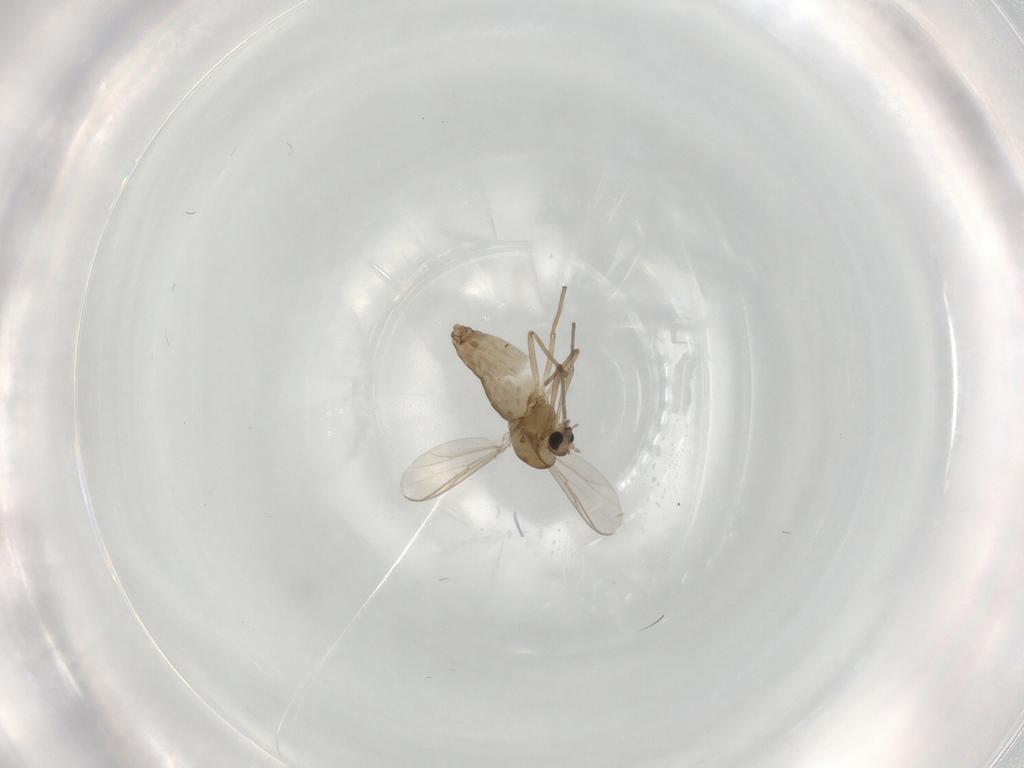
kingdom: Animalia
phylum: Arthropoda
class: Insecta
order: Diptera
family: Chironomidae
